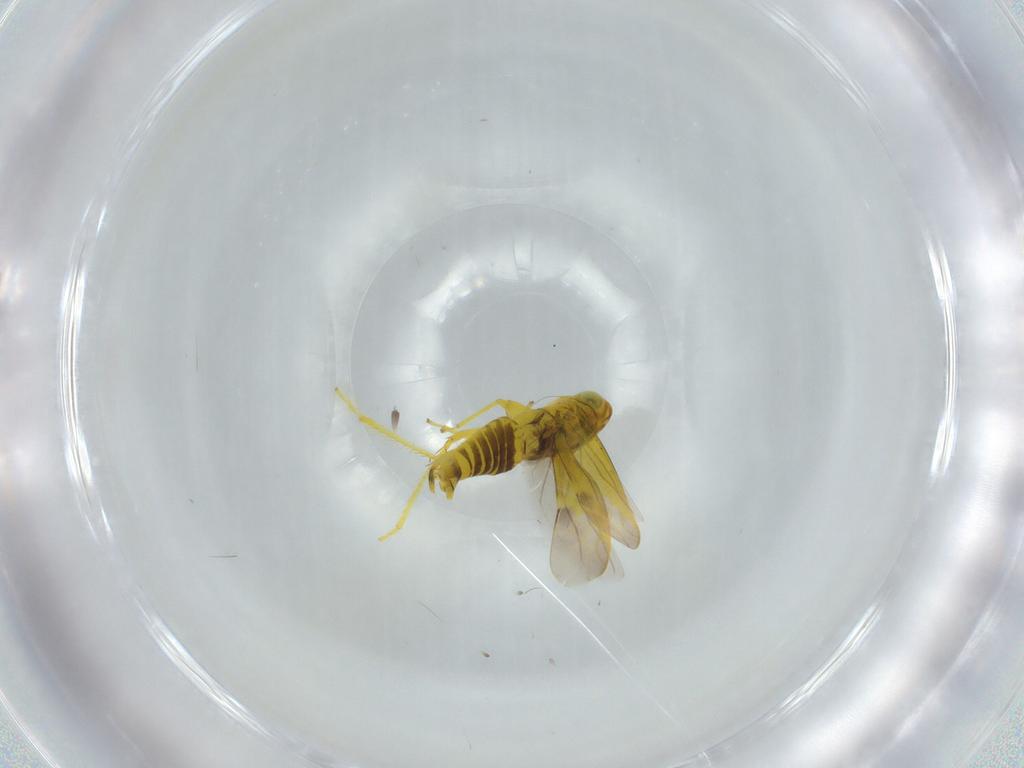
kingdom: Animalia
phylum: Arthropoda
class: Insecta
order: Hemiptera
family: Cicadellidae
